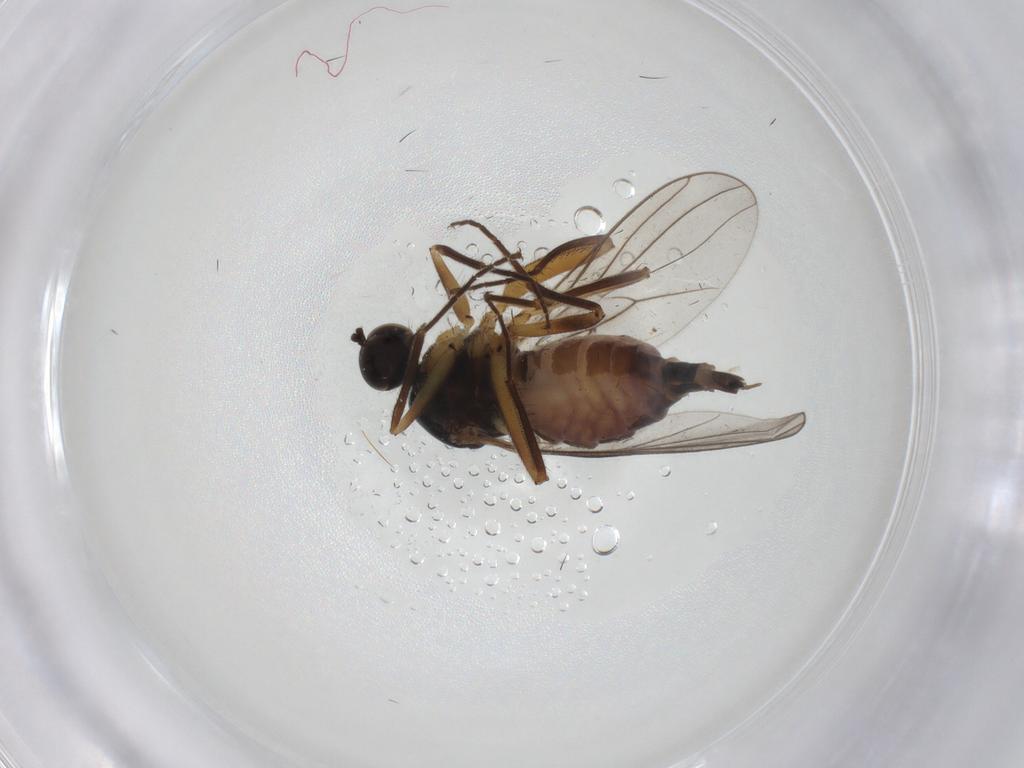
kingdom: Animalia
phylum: Arthropoda
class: Insecta
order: Diptera
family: Hybotidae
